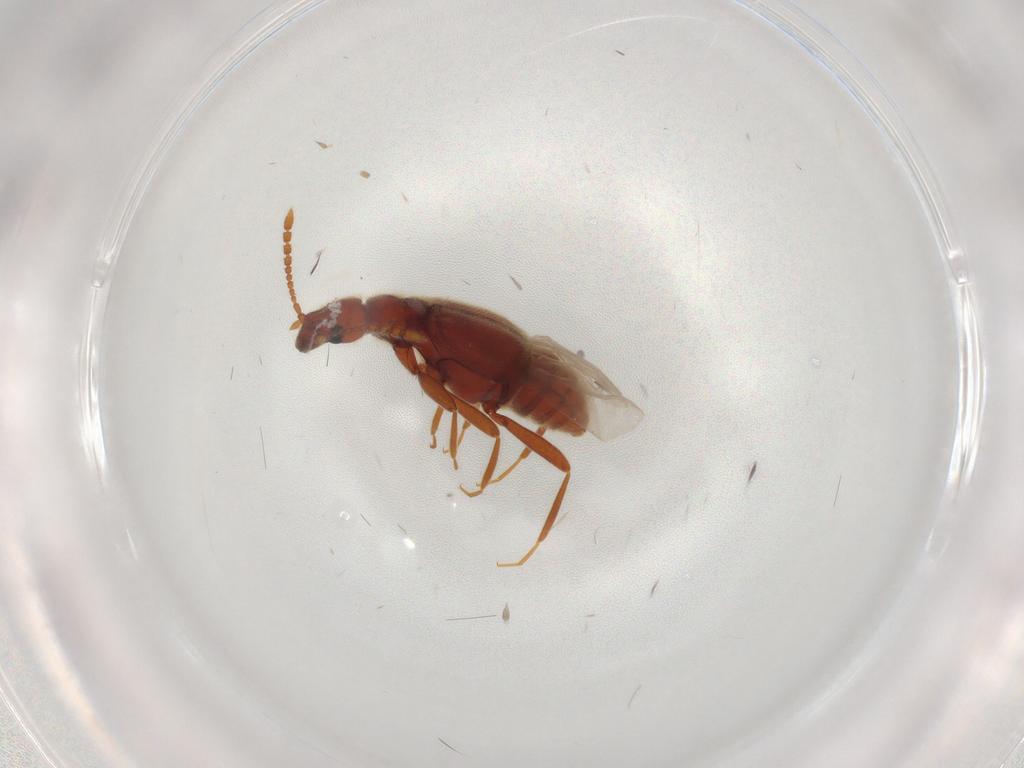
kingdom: Animalia
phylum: Arthropoda
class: Insecta
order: Coleoptera
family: Staphylinidae
